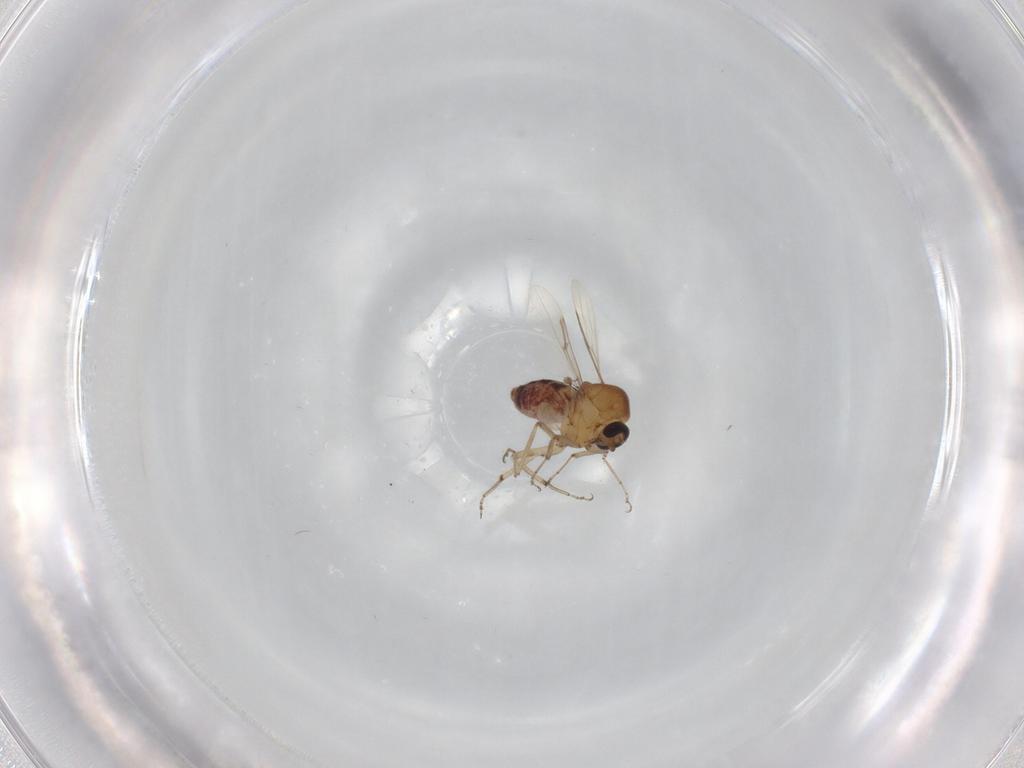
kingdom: Animalia
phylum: Arthropoda
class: Insecta
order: Diptera
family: Ceratopogonidae
